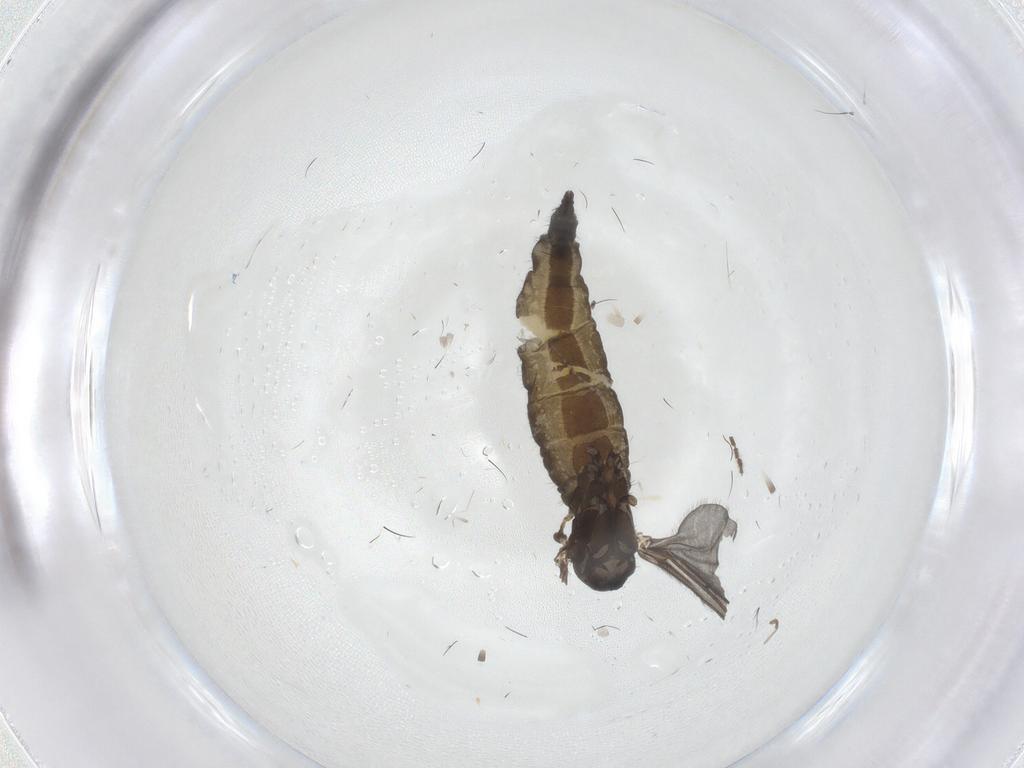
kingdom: Animalia
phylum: Arthropoda
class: Insecta
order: Diptera
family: Sciaridae
